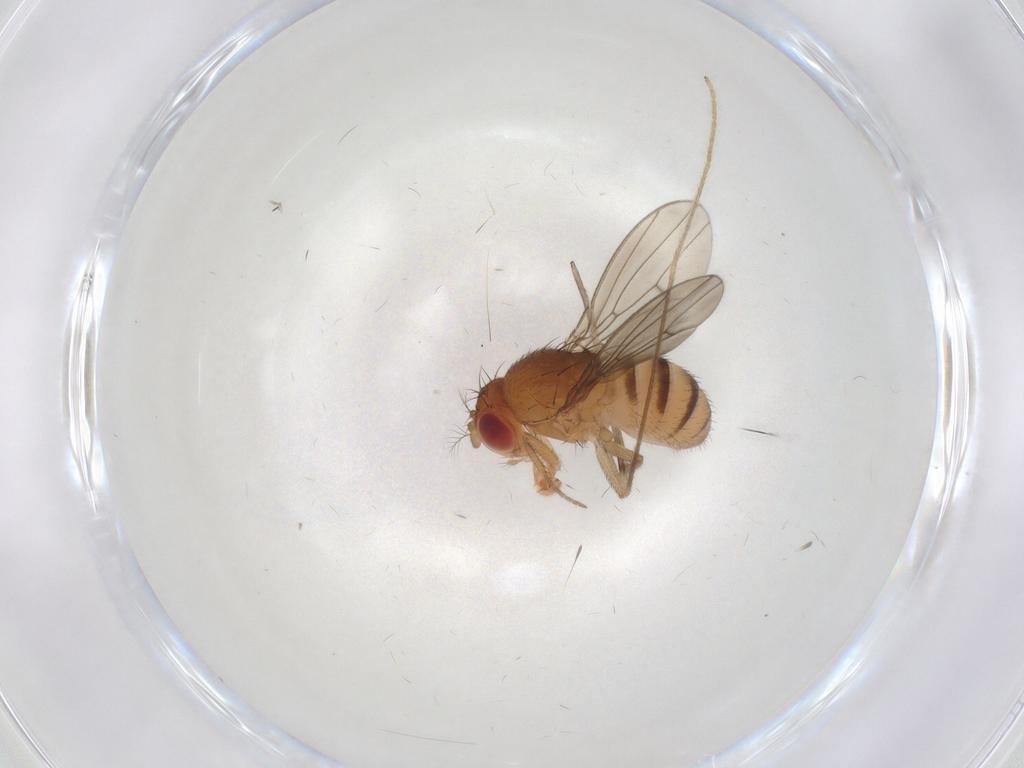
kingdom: Animalia
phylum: Arthropoda
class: Insecta
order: Diptera
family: Drosophilidae
